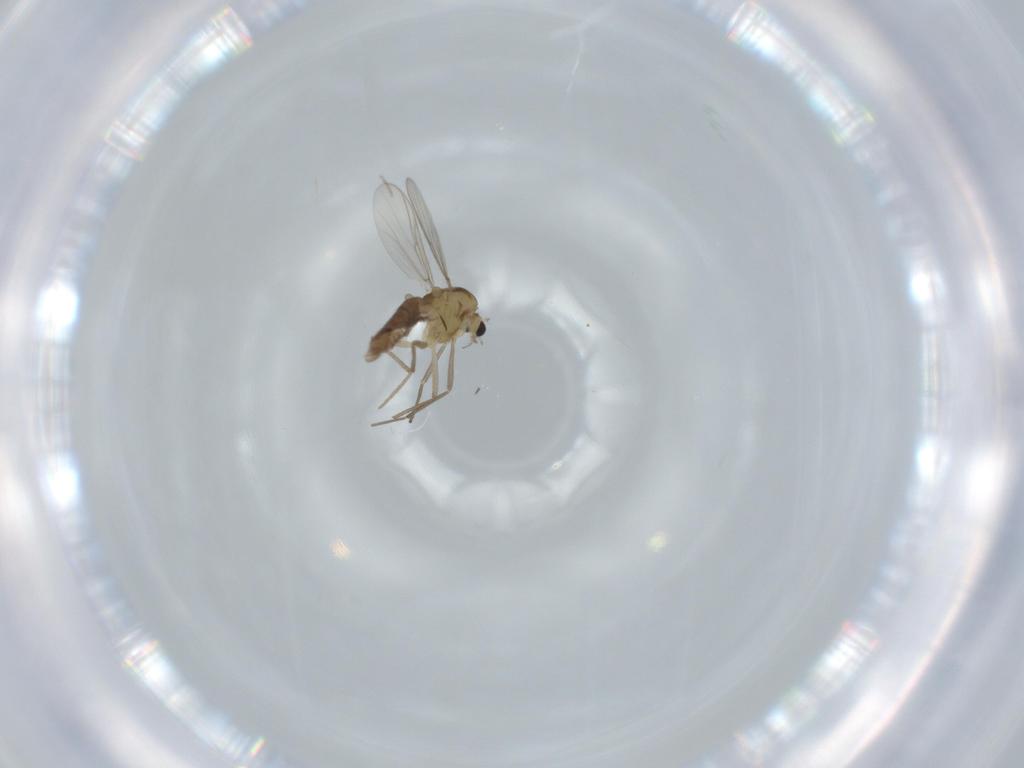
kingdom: Animalia
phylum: Arthropoda
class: Insecta
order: Diptera
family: Chironomidae
